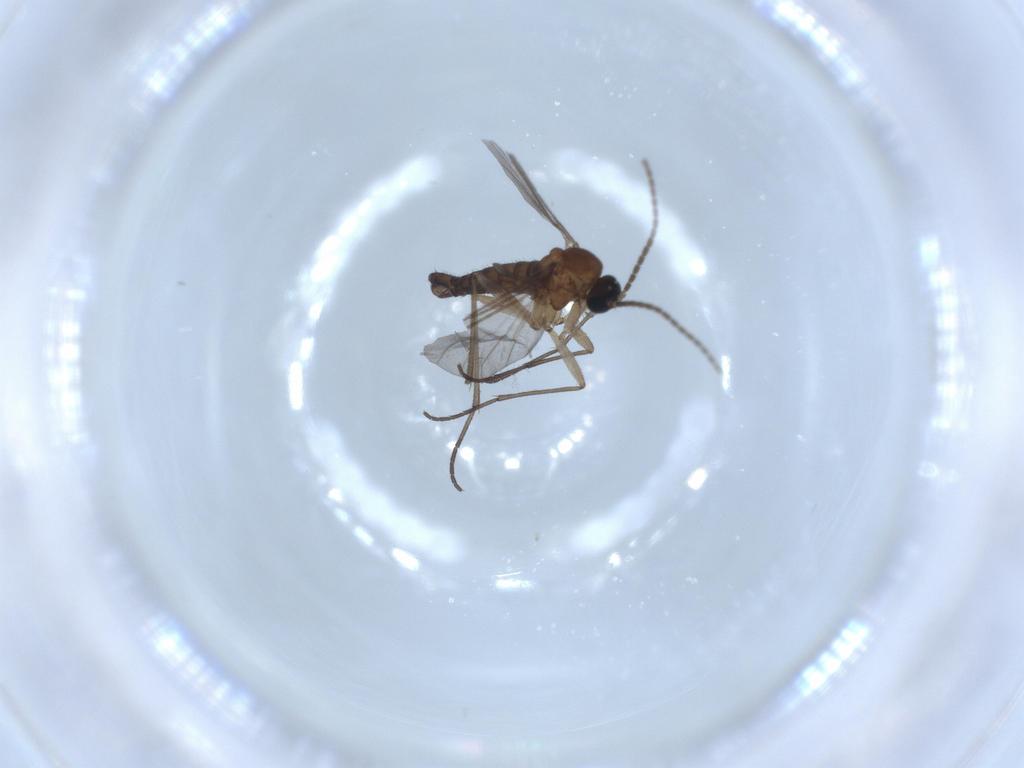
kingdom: Animalia
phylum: Arthropoda
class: Insecta
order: Diptera
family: Sciaridae
